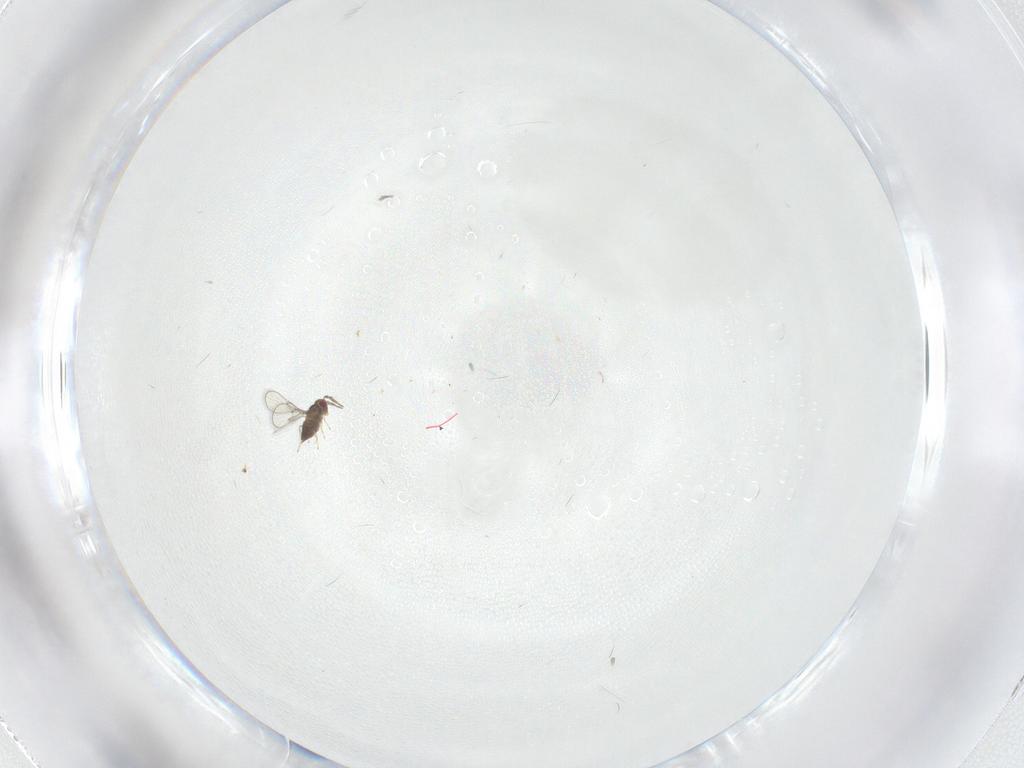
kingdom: Animalia
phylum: Arthropoda
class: Insecta
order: Hymenoptera
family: Trichogrammatidae
